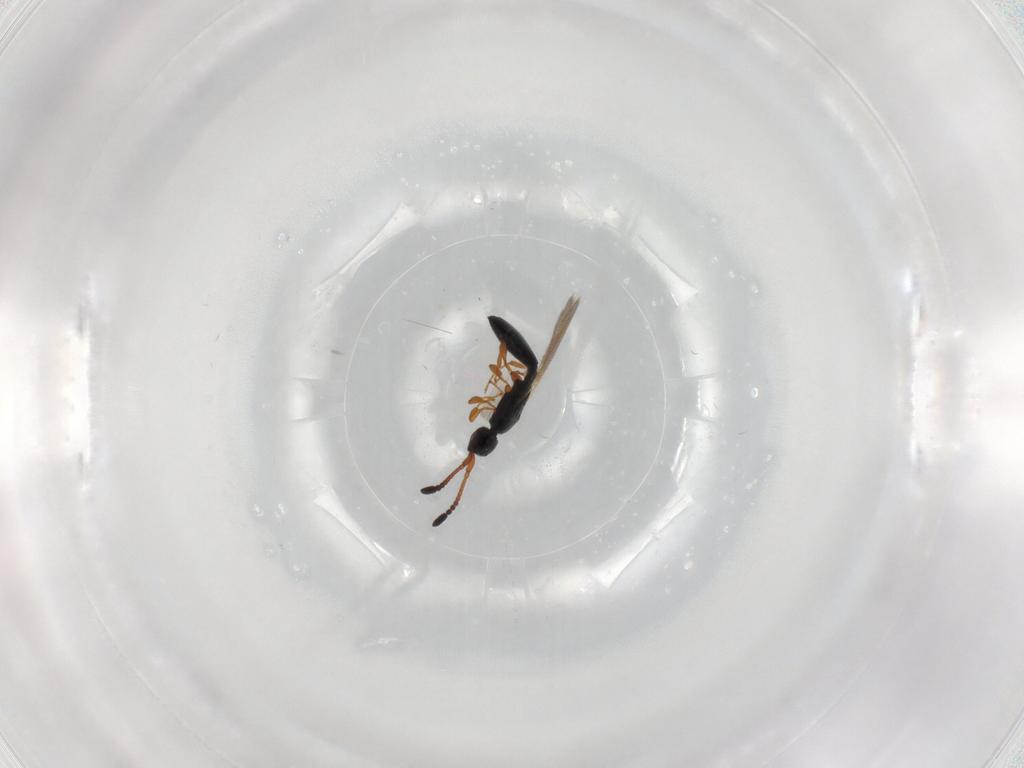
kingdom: Animalia
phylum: Arthropoda
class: Insecta
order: Hymenoptera
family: Diapriidae
